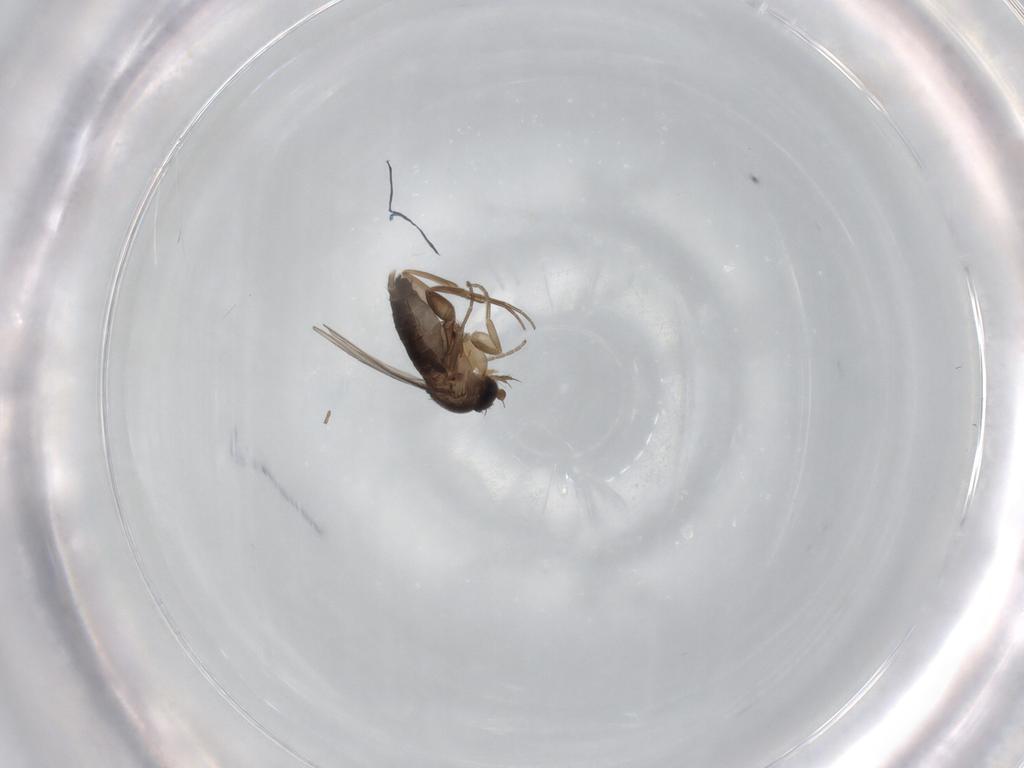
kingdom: Animalia
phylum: Arthropoda
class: Insecta
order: Diptera
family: Phoridae
